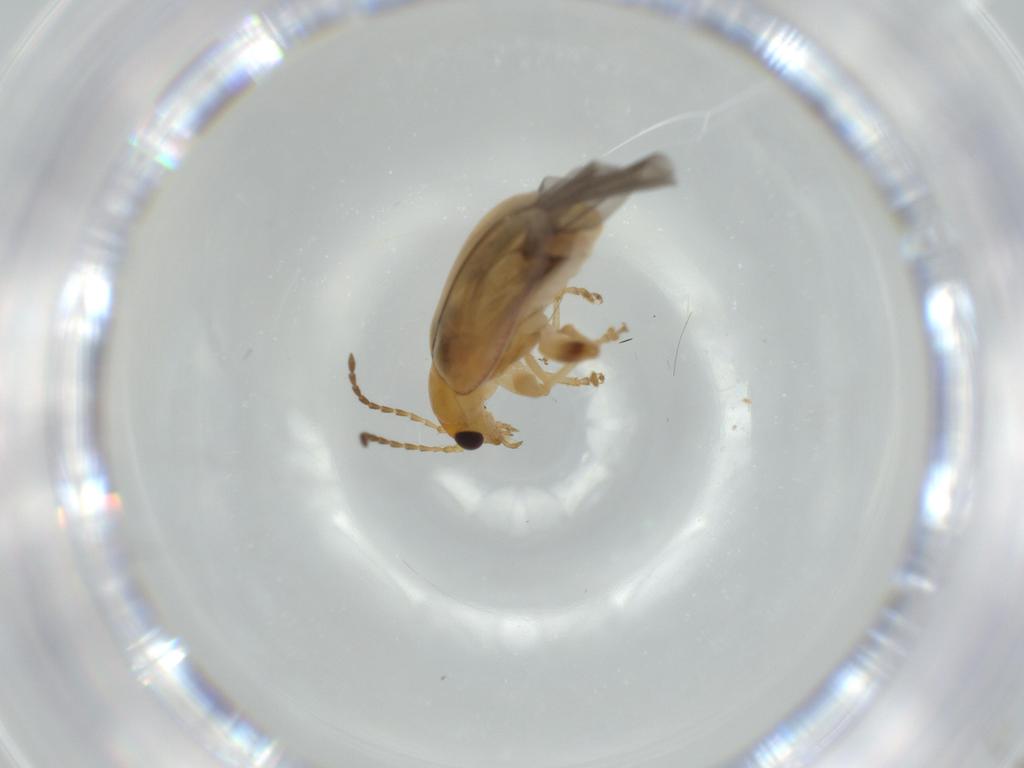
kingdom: Animalia
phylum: Arthropoda
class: Insecta
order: Coleoptera
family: Chrysomelidae
